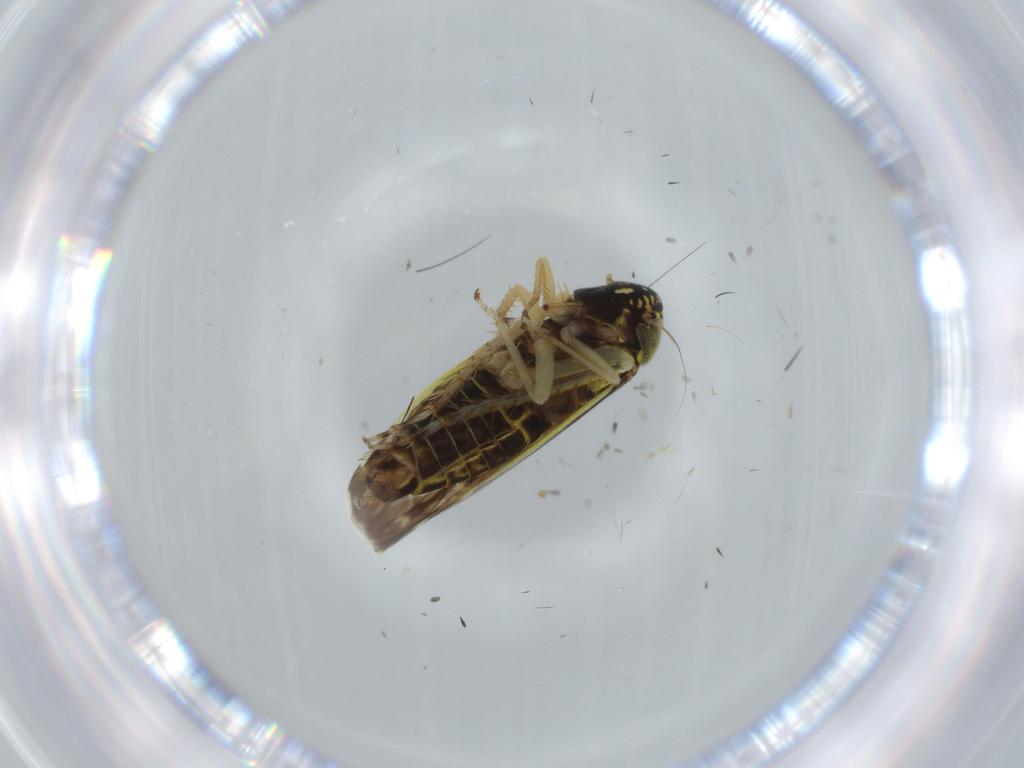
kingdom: Animalia
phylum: Arthropoda
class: Insecta
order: Hemiptera
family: Cicadellidae
